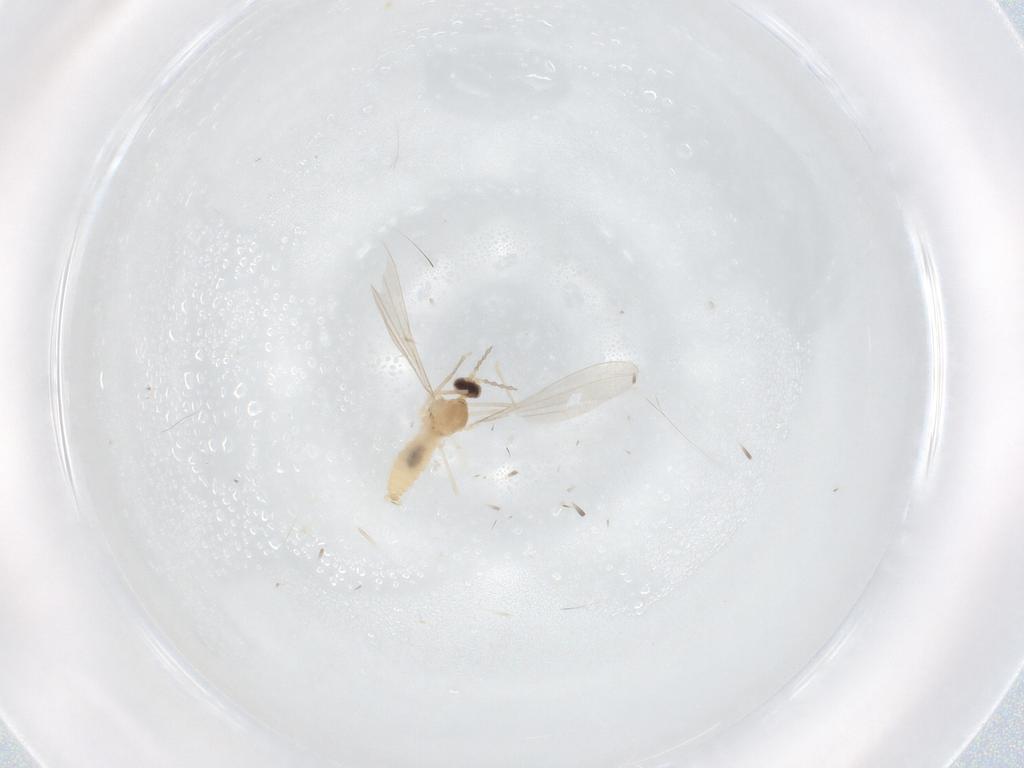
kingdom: Animalia
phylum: Arthropoda
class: Insecta
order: Diptera
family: Cecidomyiidae
